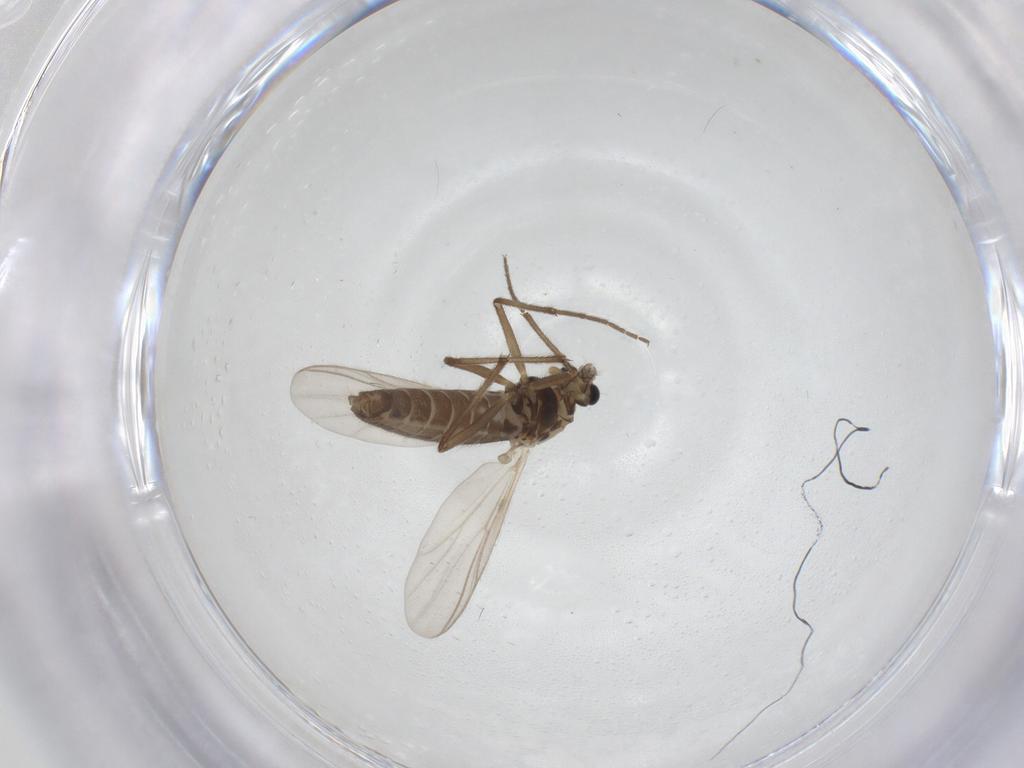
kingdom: Animalia
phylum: Arthropoda
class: Insecta
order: Diptera
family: Chironomidae
